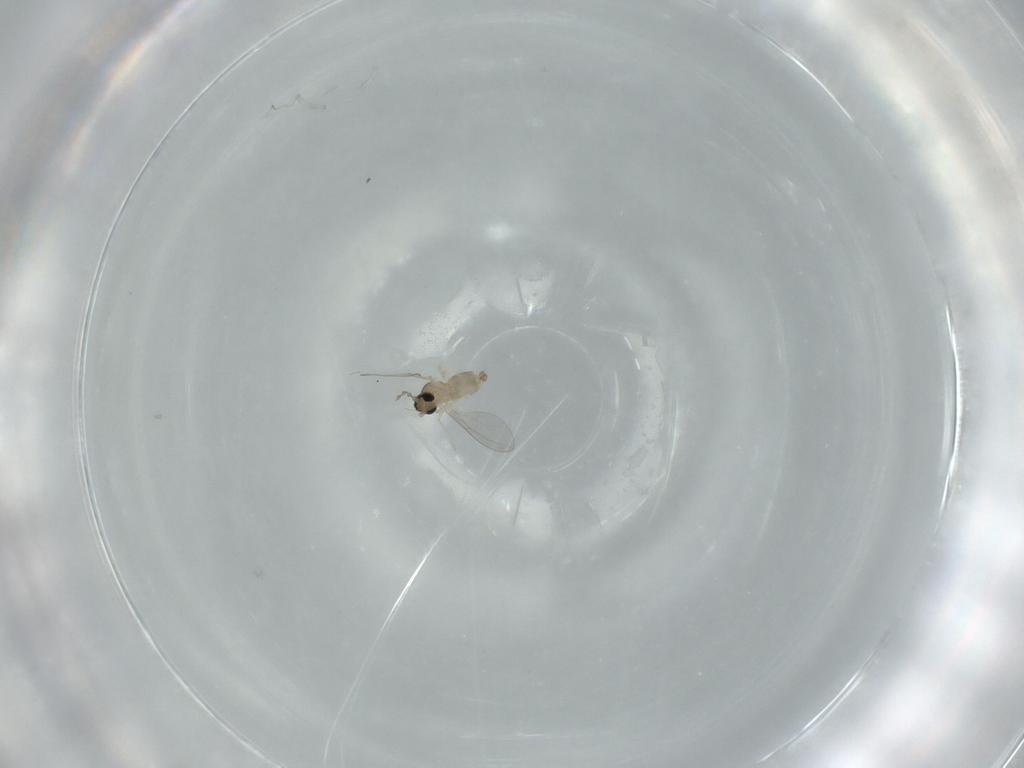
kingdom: Animalia
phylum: Arthropoda
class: Insecta
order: Diptera
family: Cecidomyiidae
